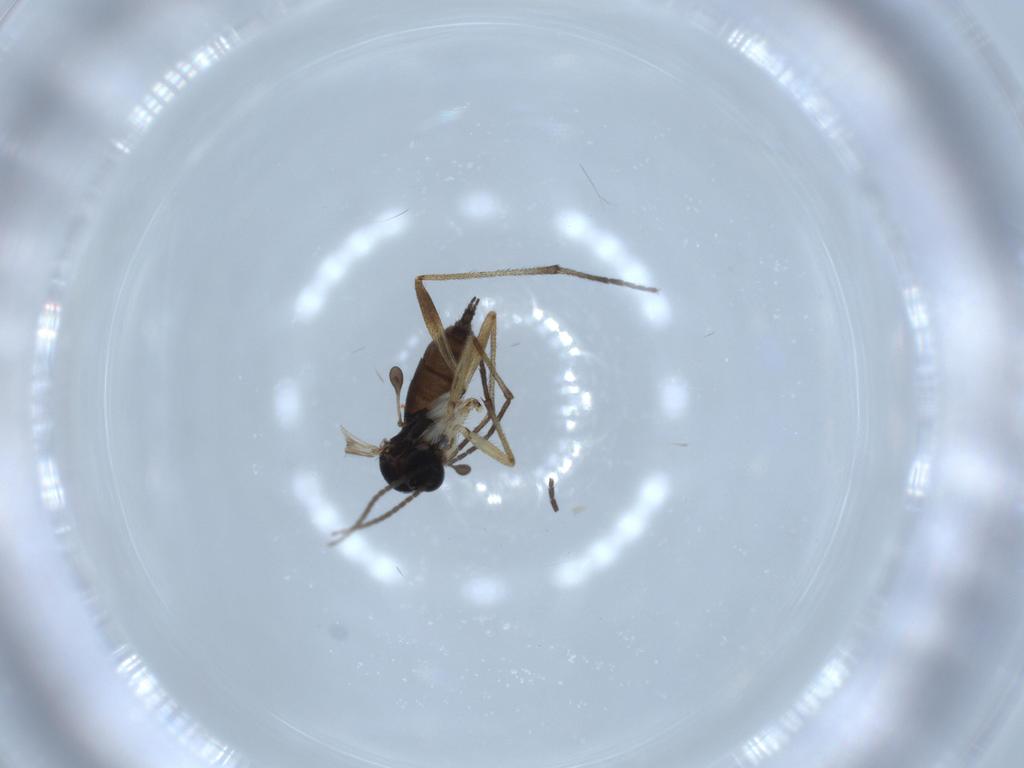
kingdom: Animalia
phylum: Arthropoda
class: Insecta
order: Diptera
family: Sciaridae
